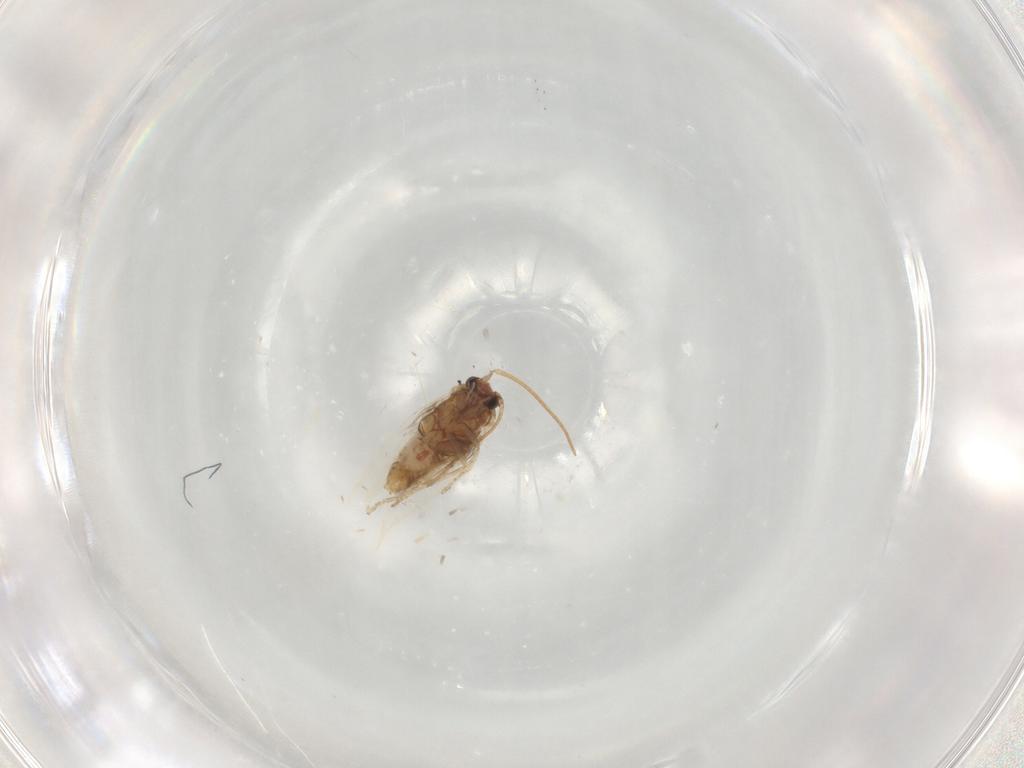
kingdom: Animalia
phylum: Arthropoda
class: Insecta
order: Lepidoptera
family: Nepticulidae
